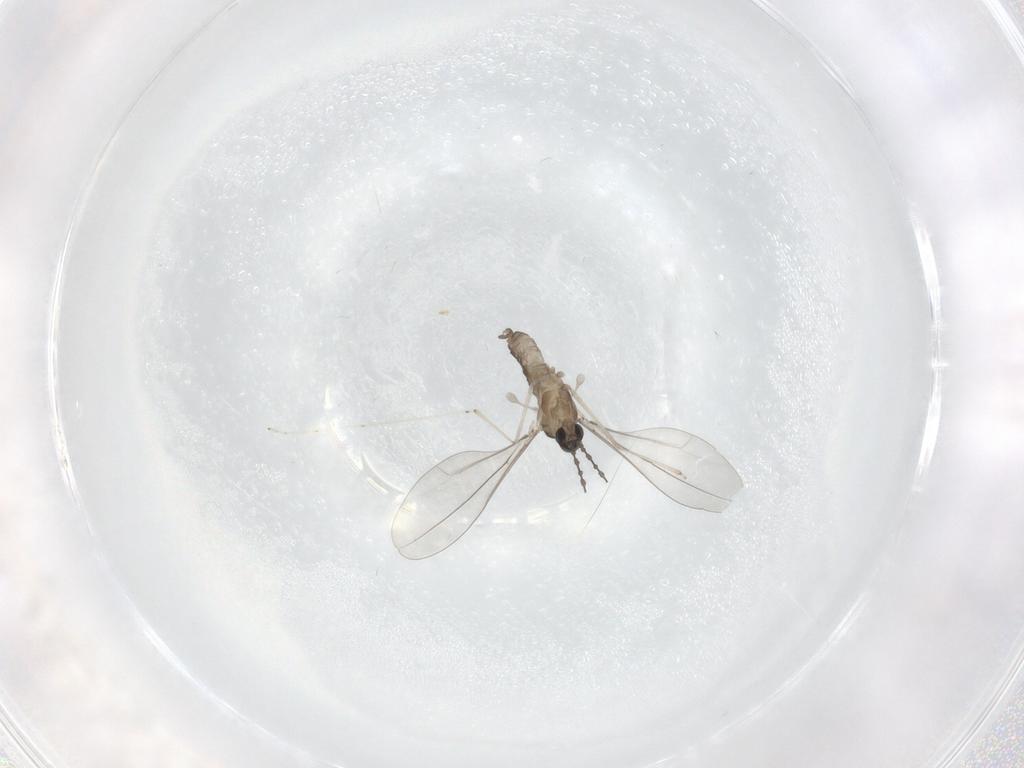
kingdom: Animalia
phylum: Arthropoda
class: Insecta
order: Diptera
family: Cecidomyiidae
